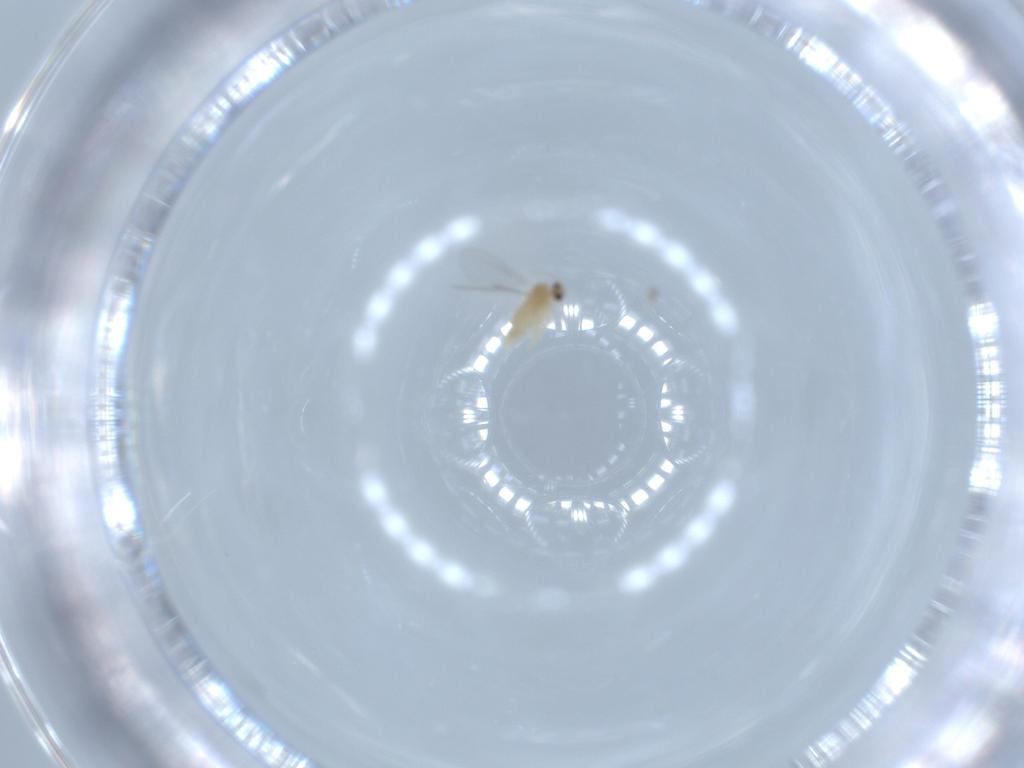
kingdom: Animalia
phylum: Arthropoda
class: Insecta
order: Diptera
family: Cecidomyiidae
